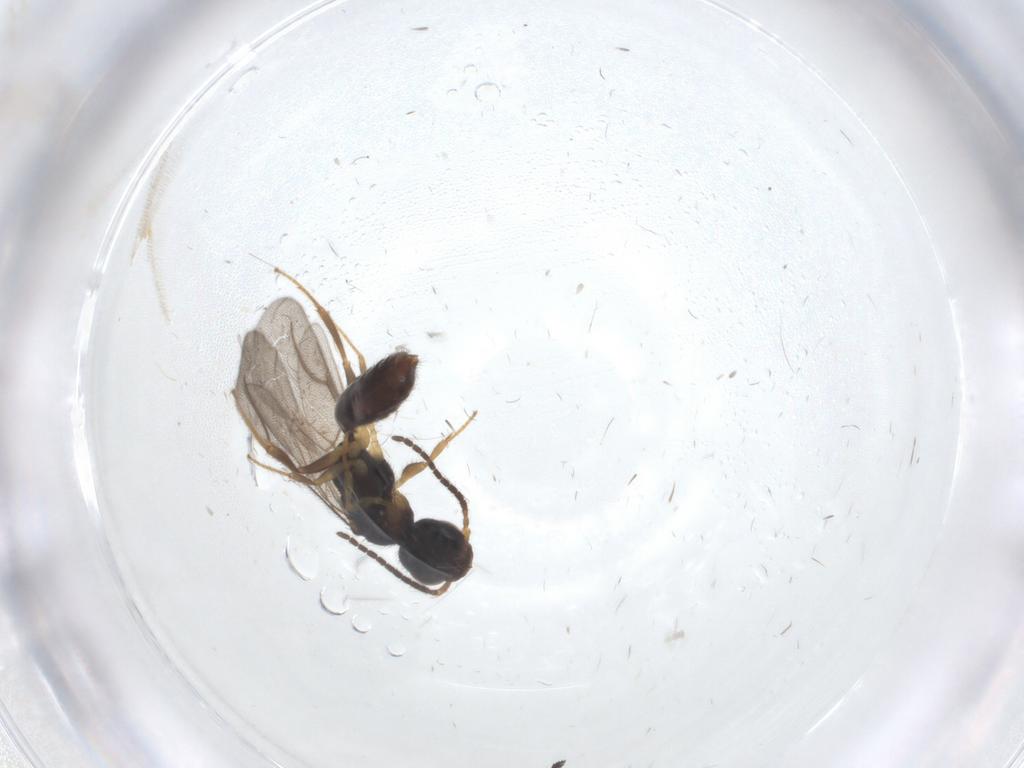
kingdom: Animalia
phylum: Arthropoda
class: Insecta
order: Hymenoptera
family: Bethylidae
